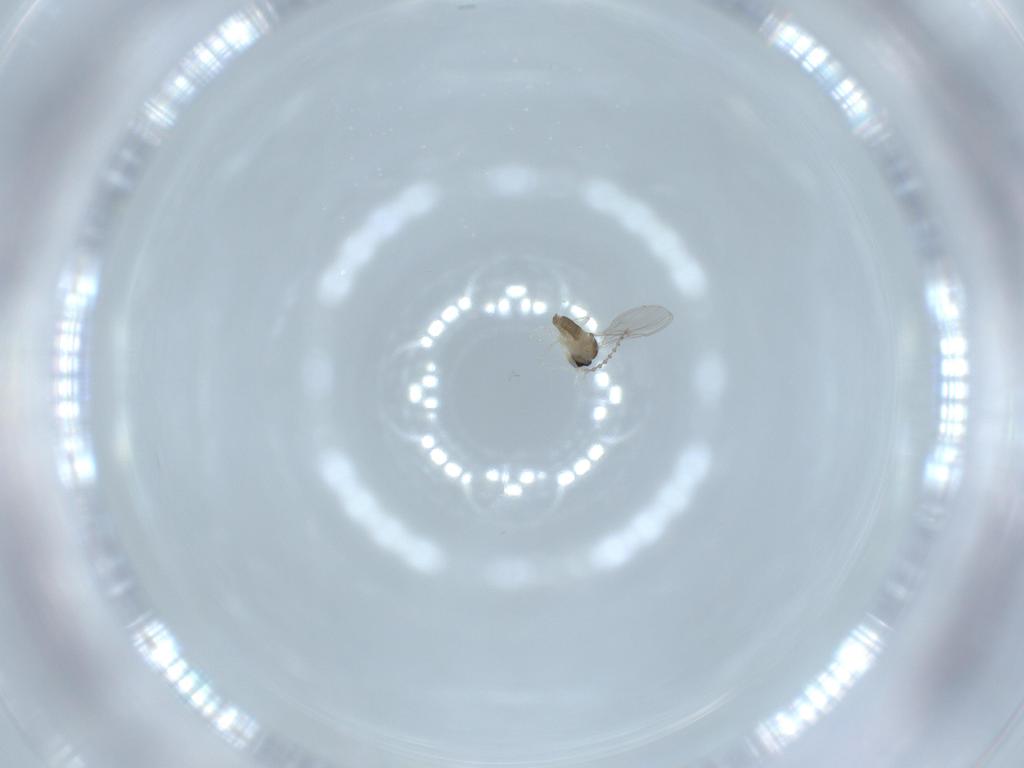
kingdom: Animalia
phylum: Arthropoda
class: Insecta
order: Diptera
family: Cecidomyiidae
